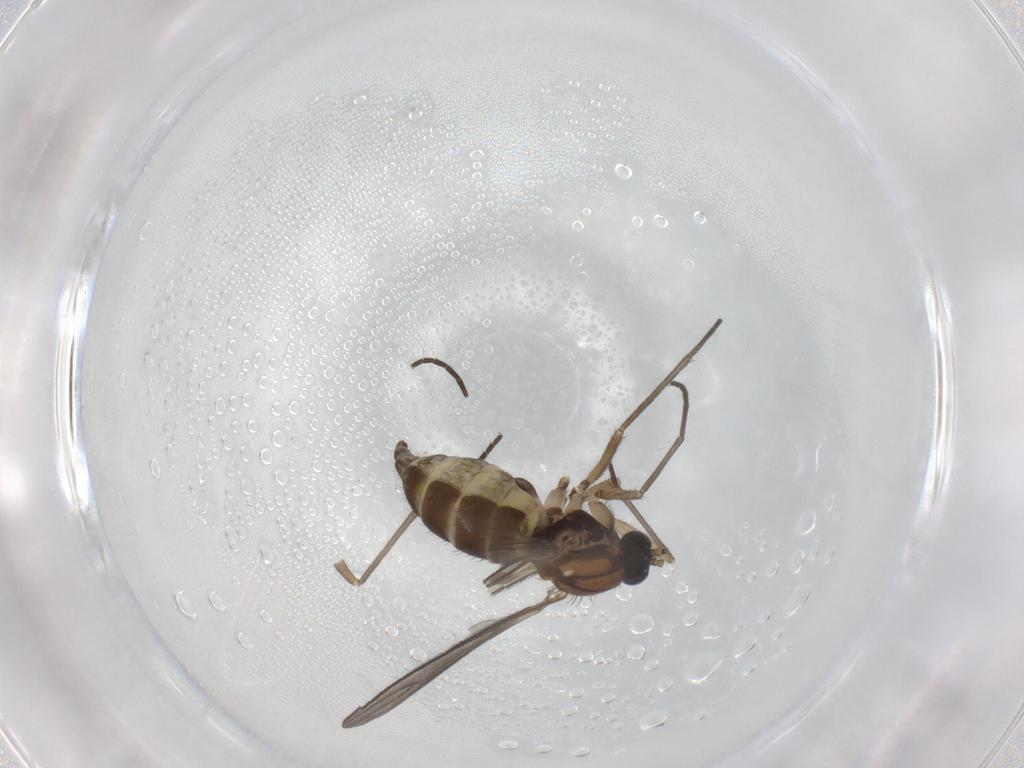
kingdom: Animalia
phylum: Arthropoda
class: Insecta
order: Diptera
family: Sciaridae
